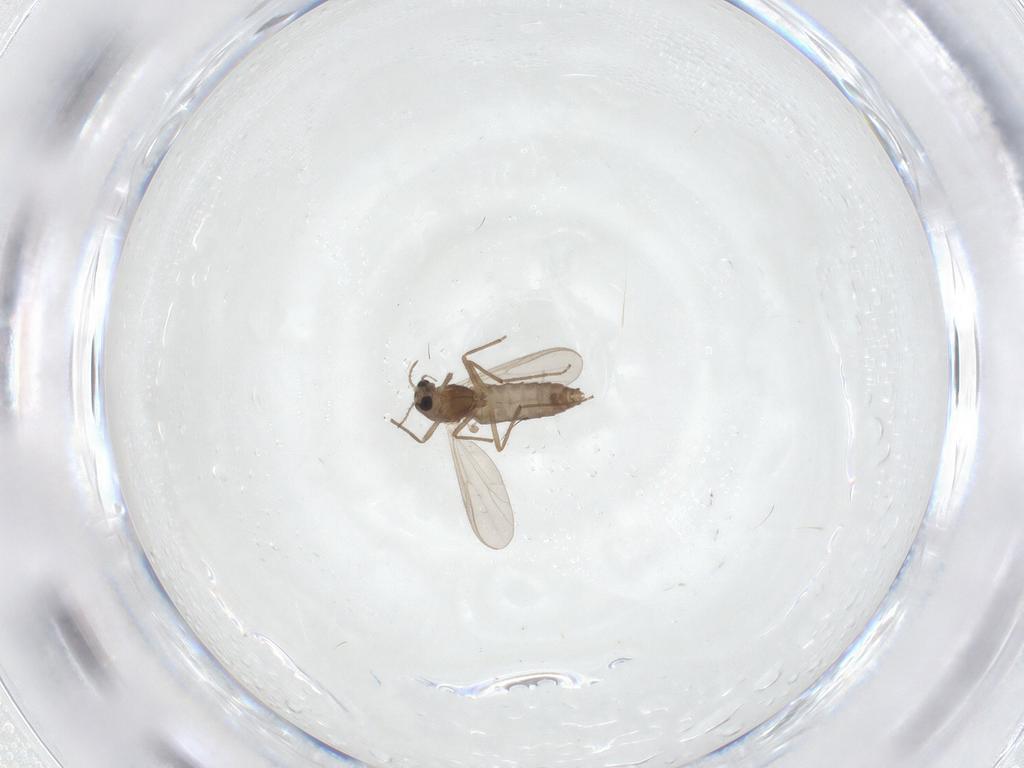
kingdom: Animalia
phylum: Arthropoda
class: Insecta
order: Diptera
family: Chironomidae
